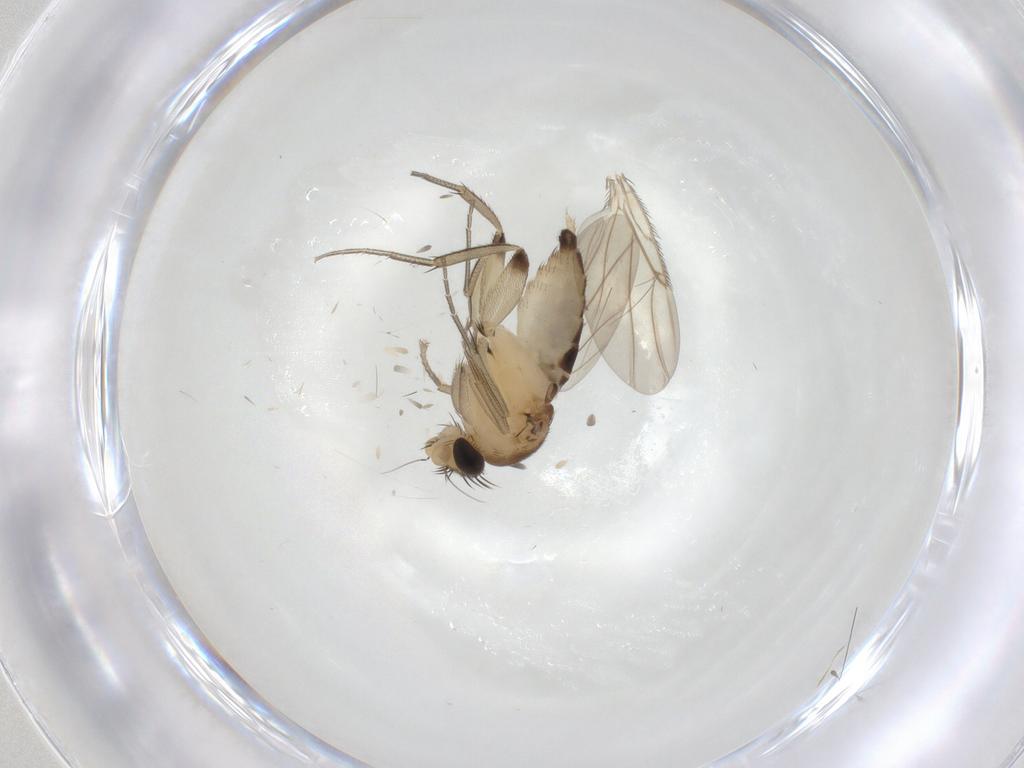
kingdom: Animalia
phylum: Arthropoda
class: Insecta
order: Diptera
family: Phoridae
